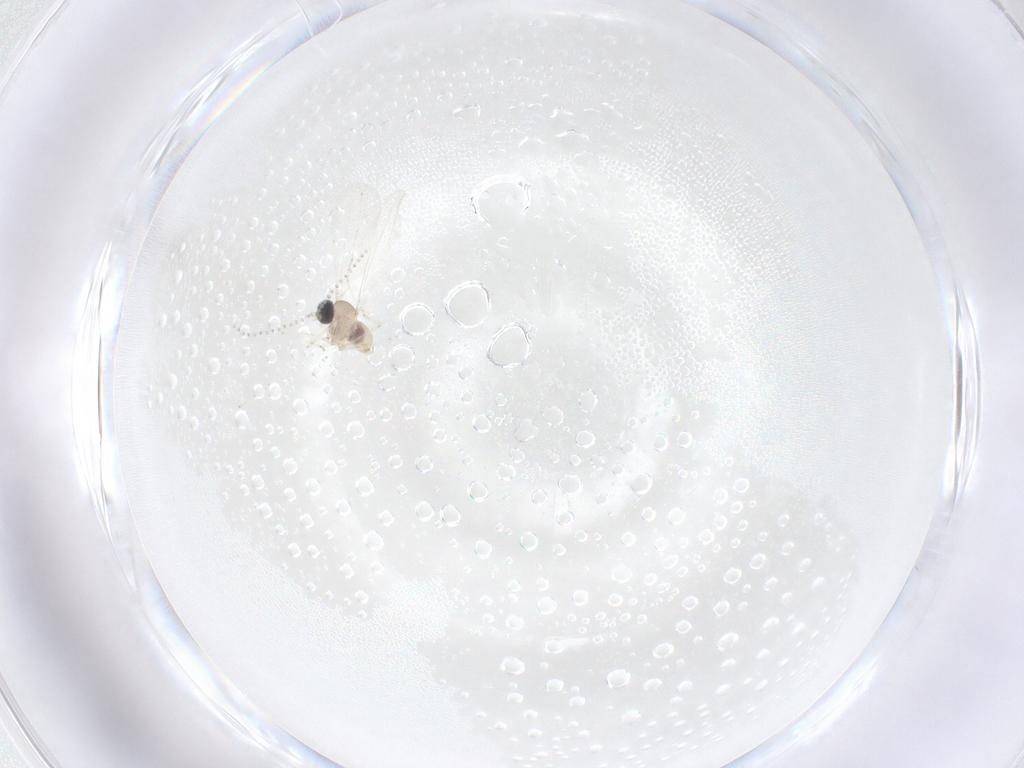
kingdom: Animalia
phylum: Arthropoda
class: Insecta
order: Diptera
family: Cecidomyiidae
